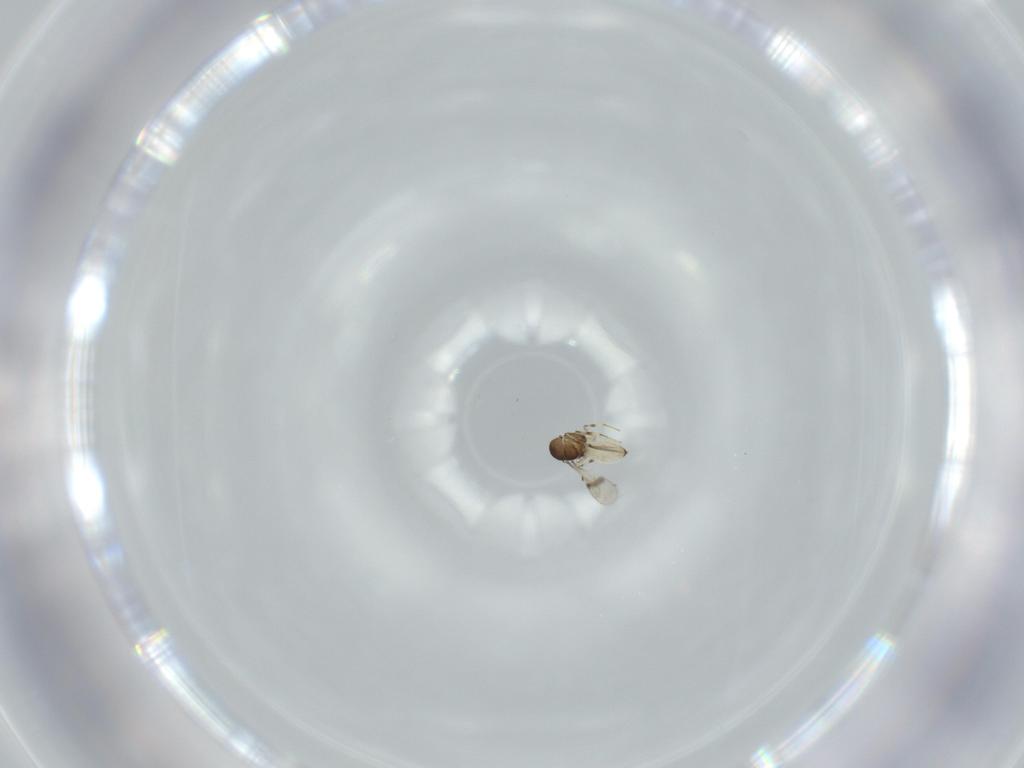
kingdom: Animalia
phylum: Arthropoda
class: Insecta
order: Hymenoptera
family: Scelionidae
